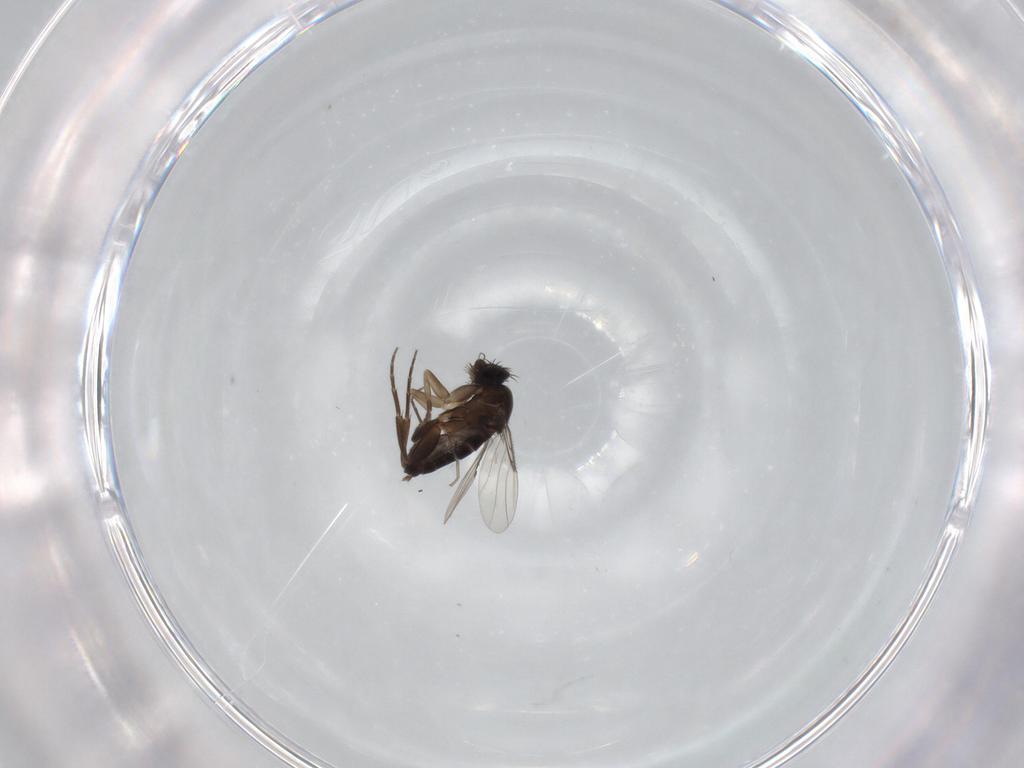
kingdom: Animalia
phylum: Arthropoda
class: Insecta
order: Diptera
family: Phoridae
